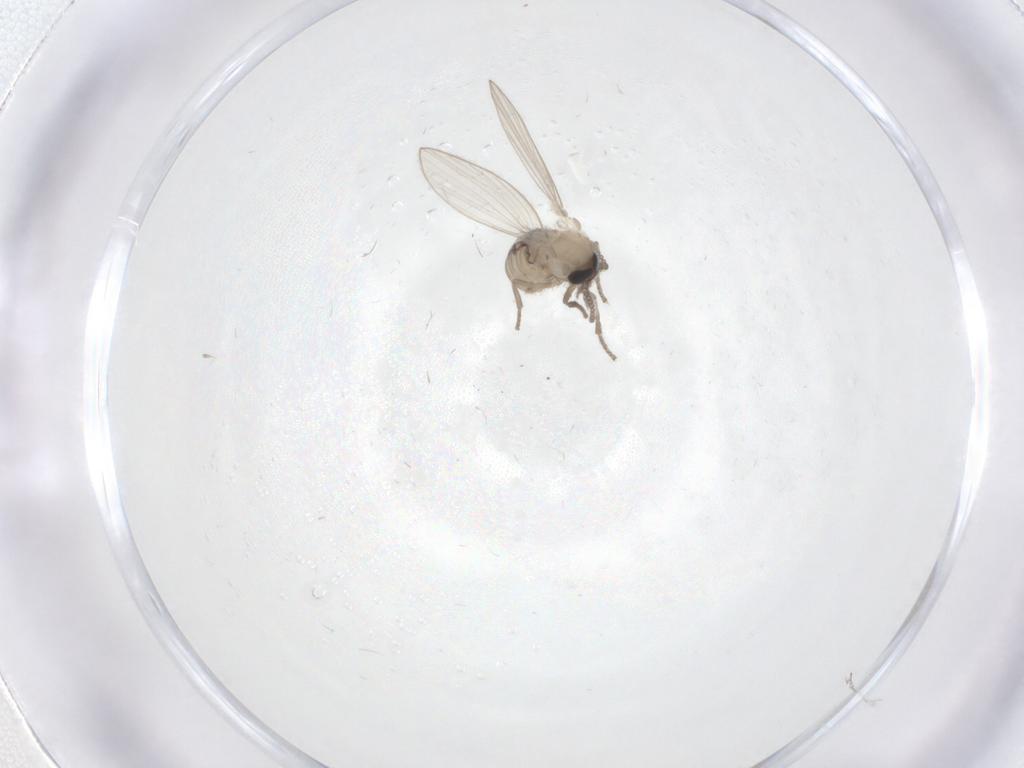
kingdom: Animalia
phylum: Arthropoda
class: Insecta
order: Diptera
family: Psychodidae
